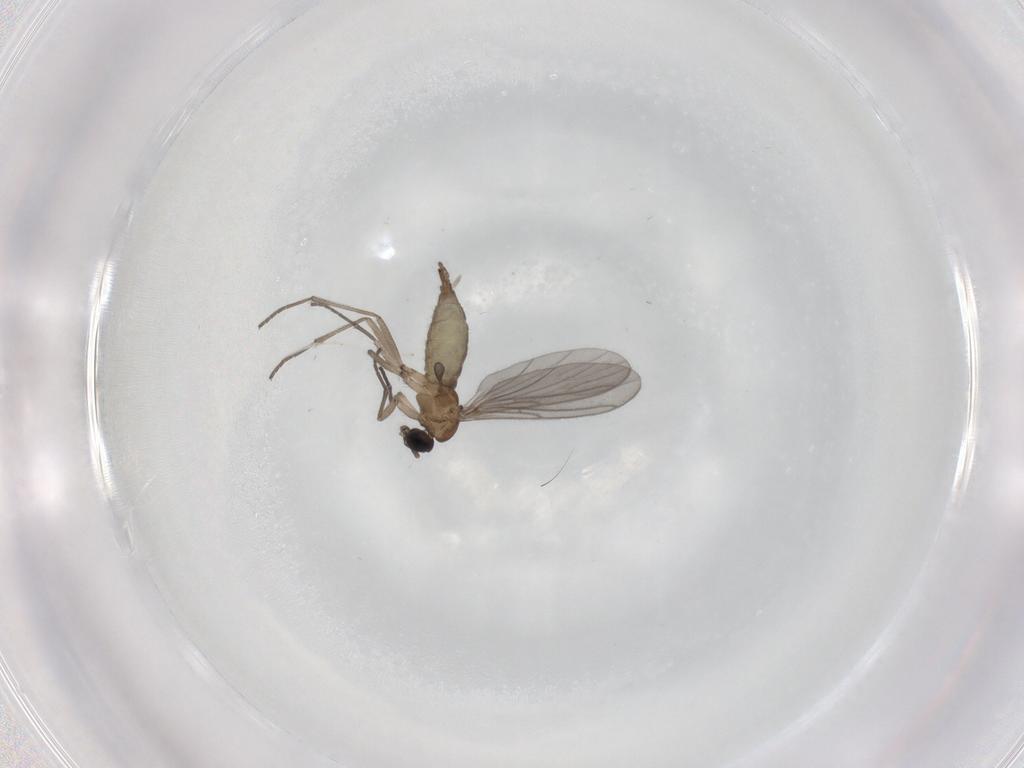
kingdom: Animalia
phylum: Arthropoda
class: Insecta
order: Diptera
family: Sciaridae
